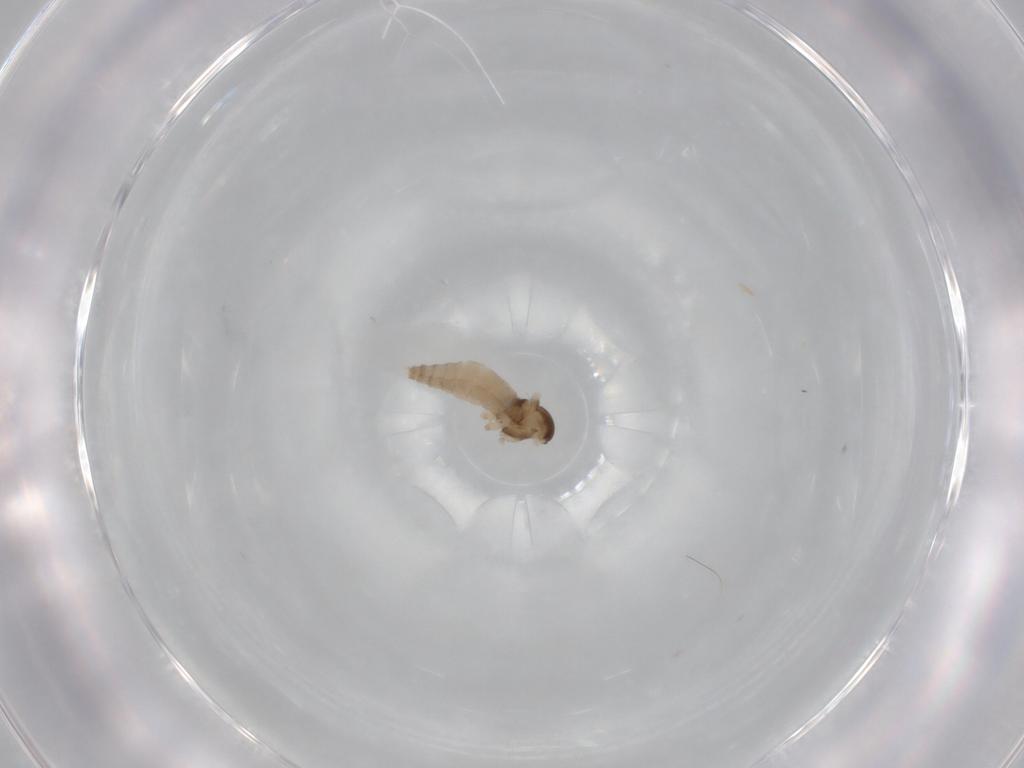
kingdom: Animalia
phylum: Arthropoda
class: Insecta
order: Diptera
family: Cecidomyiidae
